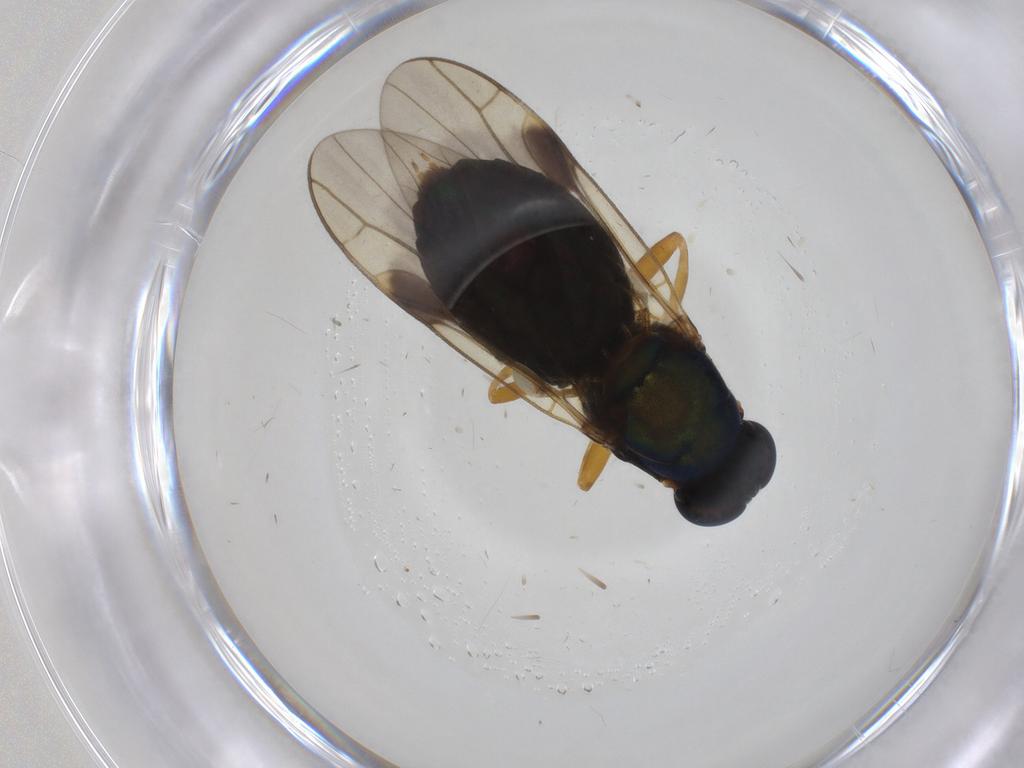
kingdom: Animalia
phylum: Arthropoda
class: Insecta
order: Diptera
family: Stratiomyidae
